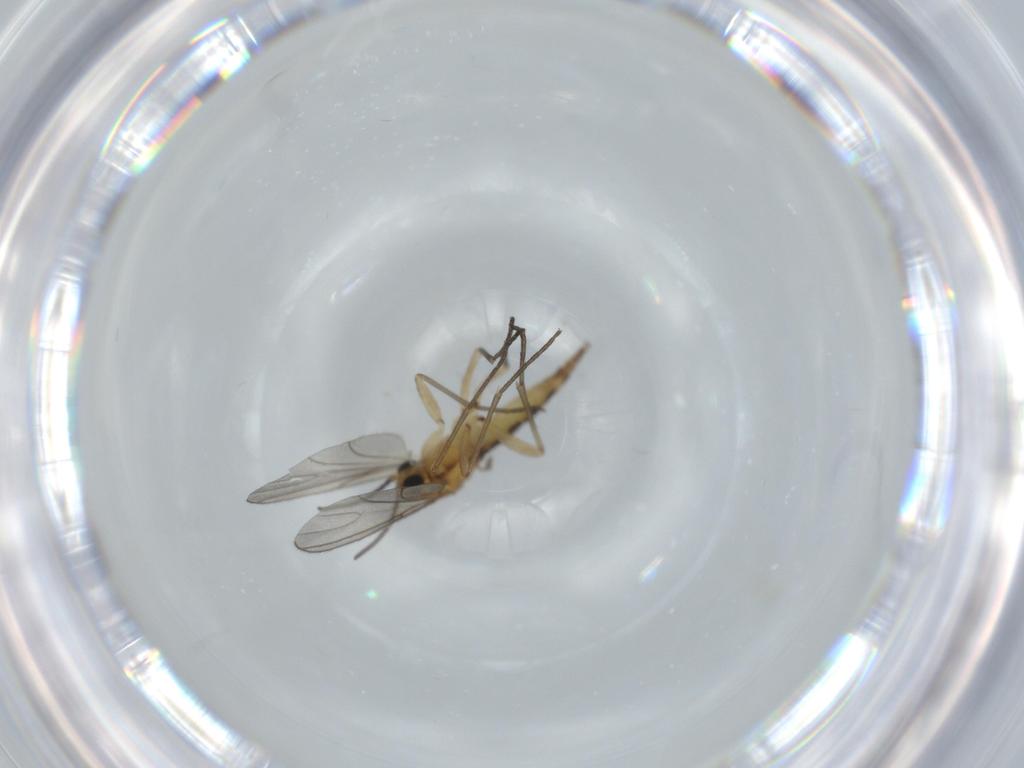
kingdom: Animalia
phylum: Arthropoda
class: Insecta
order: Diptera
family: Sciaridae
